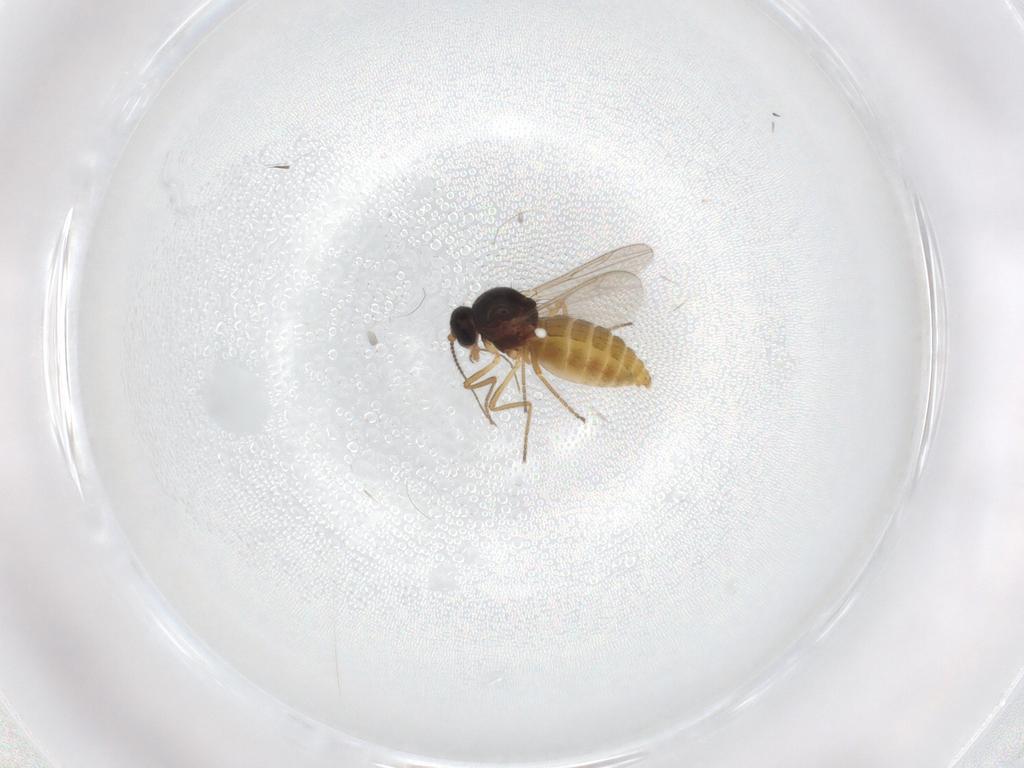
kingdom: Animalia
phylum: Arthropoda
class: Insecta
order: Diptera
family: Ceratopogonidae
